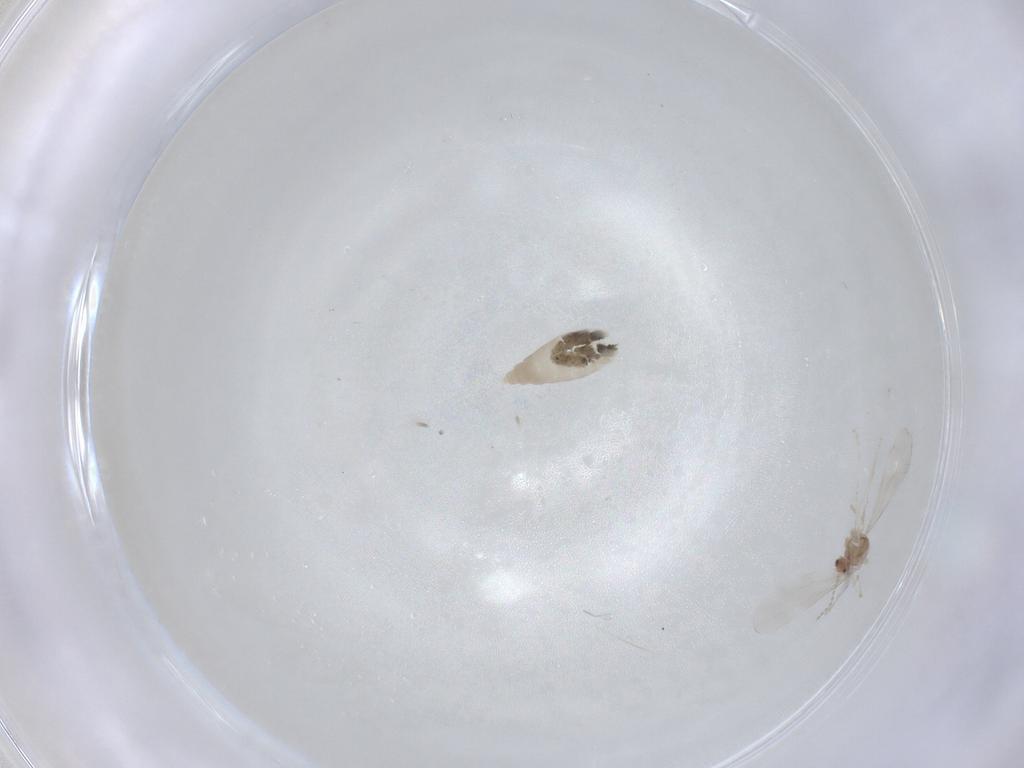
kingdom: Animalia
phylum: Arthropoda
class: Insecta
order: Diptera
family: Cecidomyiidae
